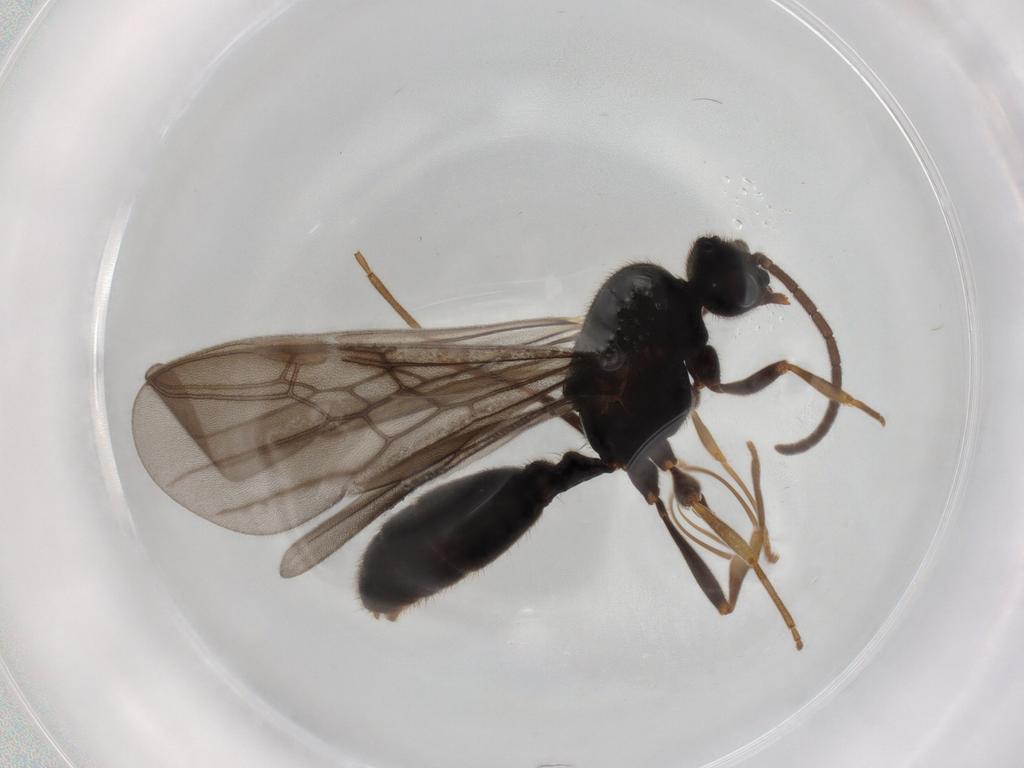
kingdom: Animalia
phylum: Arthropoda
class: Insecta
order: Hymenoptera
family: Formicidae
